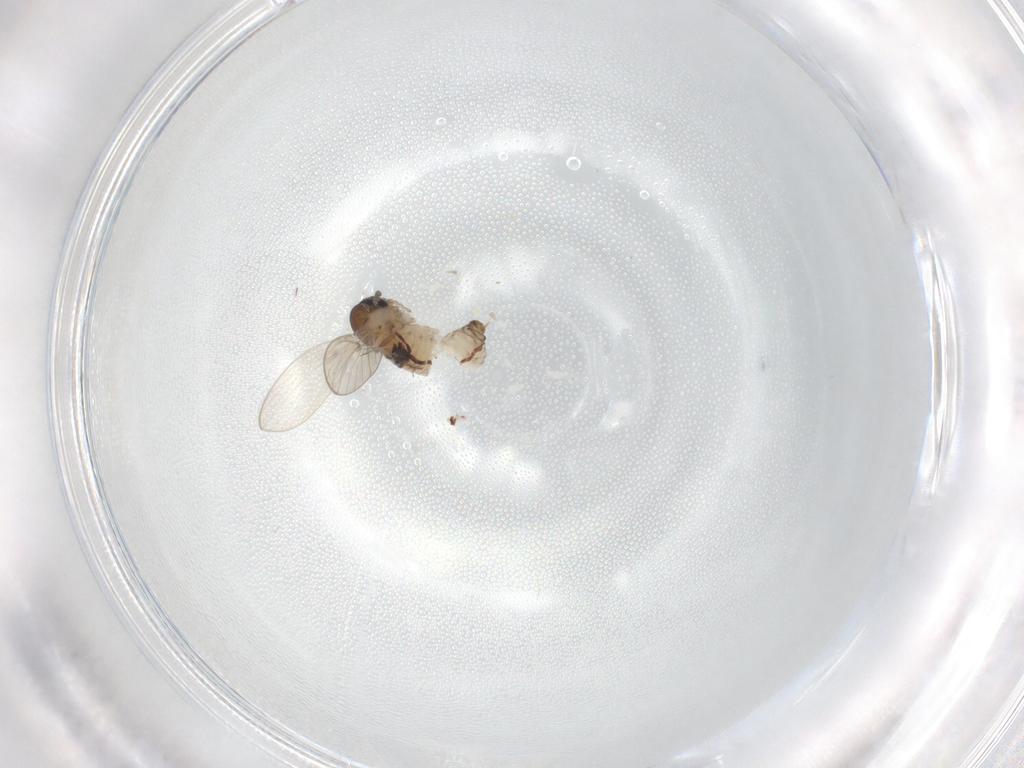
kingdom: Animalia
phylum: Arthropoda
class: Insecta
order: Diptera
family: Psychodidae
